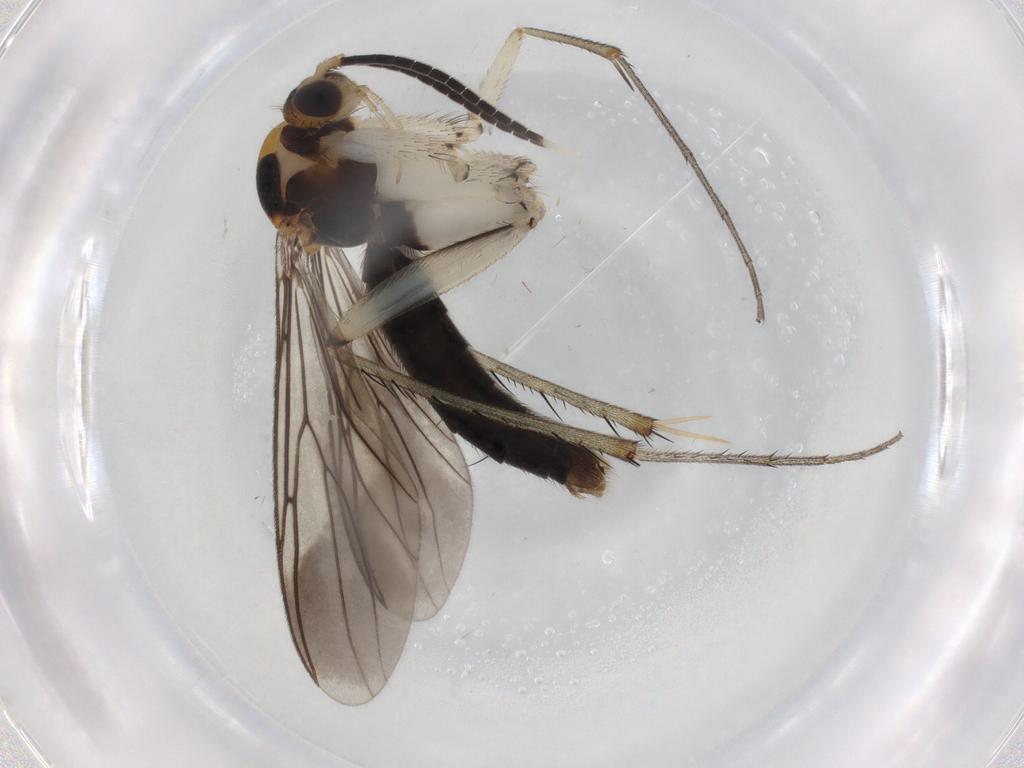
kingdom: Animalia
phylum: Arthropoda
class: Insecta
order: Diptera
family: Mycetophilidae
